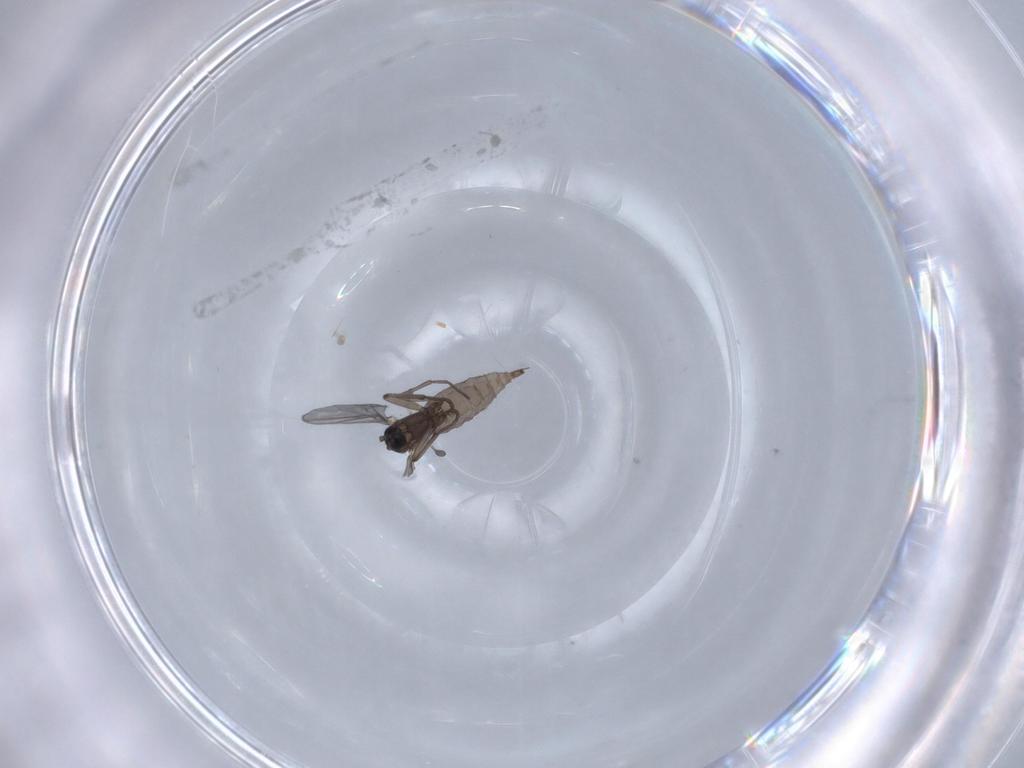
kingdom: Animalia
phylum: Arthropoda
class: Insecta
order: Diptera
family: Sciaridae
